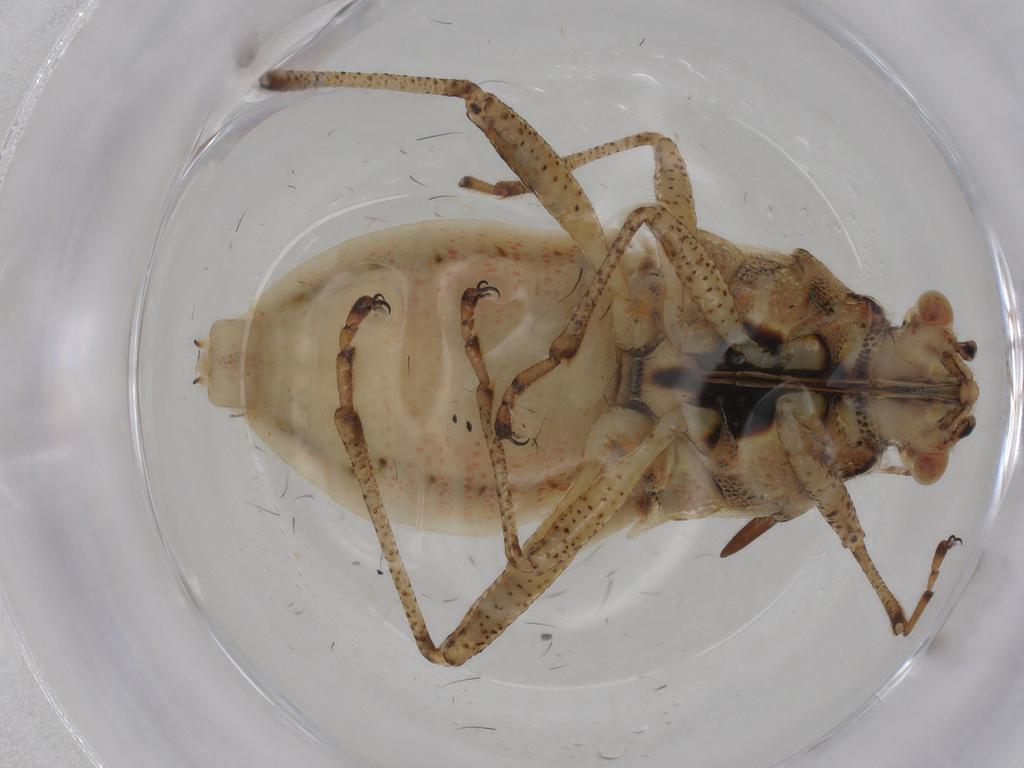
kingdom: Animalia
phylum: Arthropoda
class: Insecta
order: Hemiptera
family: Rhopalidae
